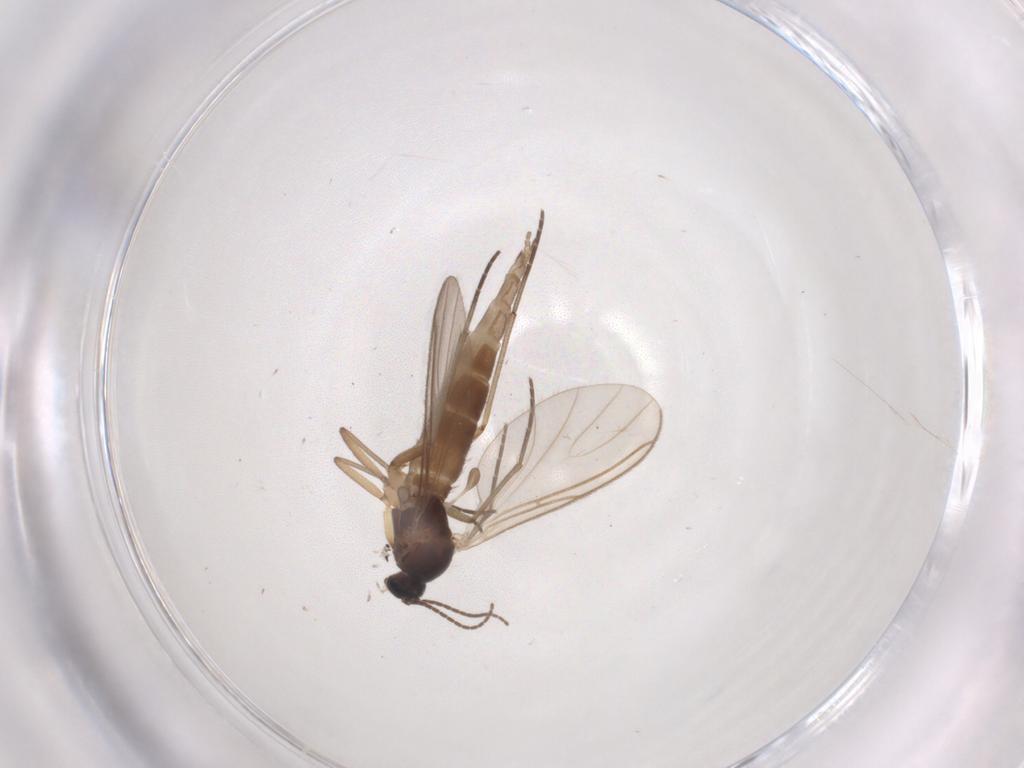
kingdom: Animalia
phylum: Arthropoda
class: Insecta
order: Diptera
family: Sciaridae
